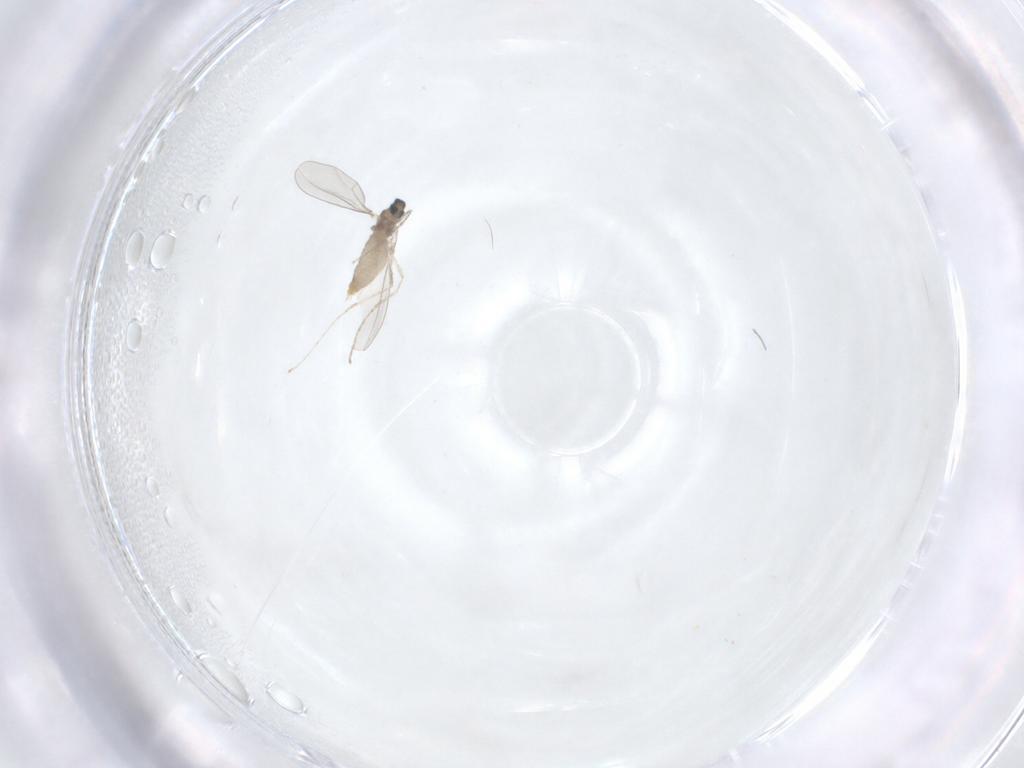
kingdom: Animalia
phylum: Arthropoda
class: Insecta
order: Diptera
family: Cecidomyiidae
